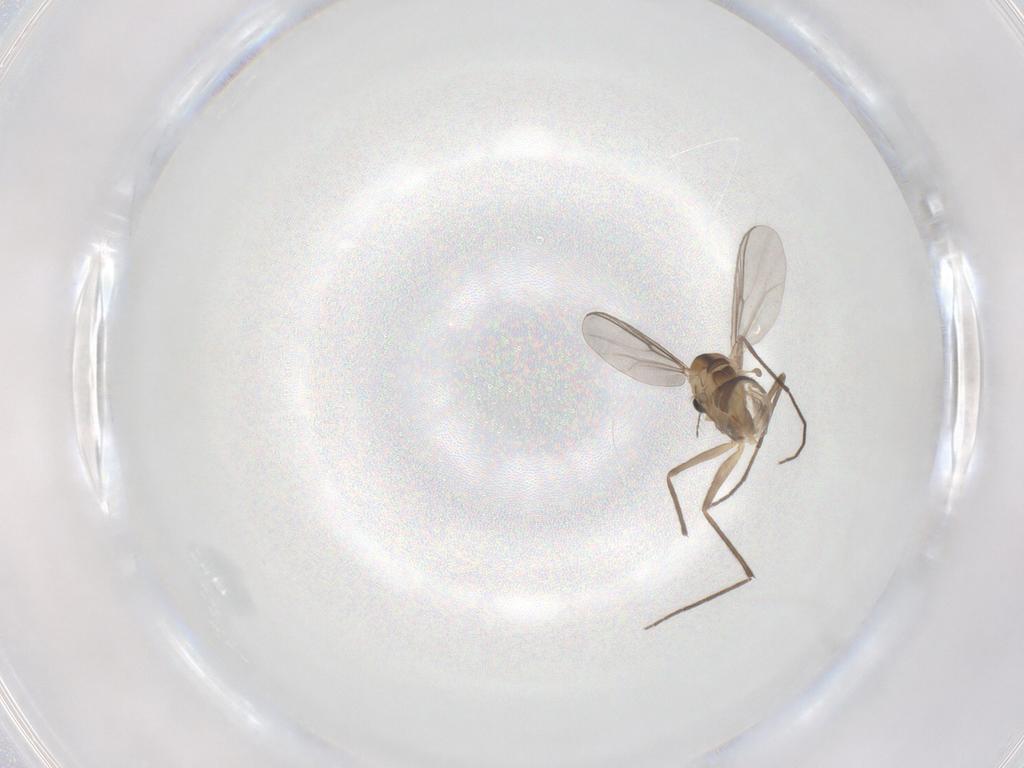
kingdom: Animalia
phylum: Arthropoda
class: Insecta
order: Diptera
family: Chironomidae
